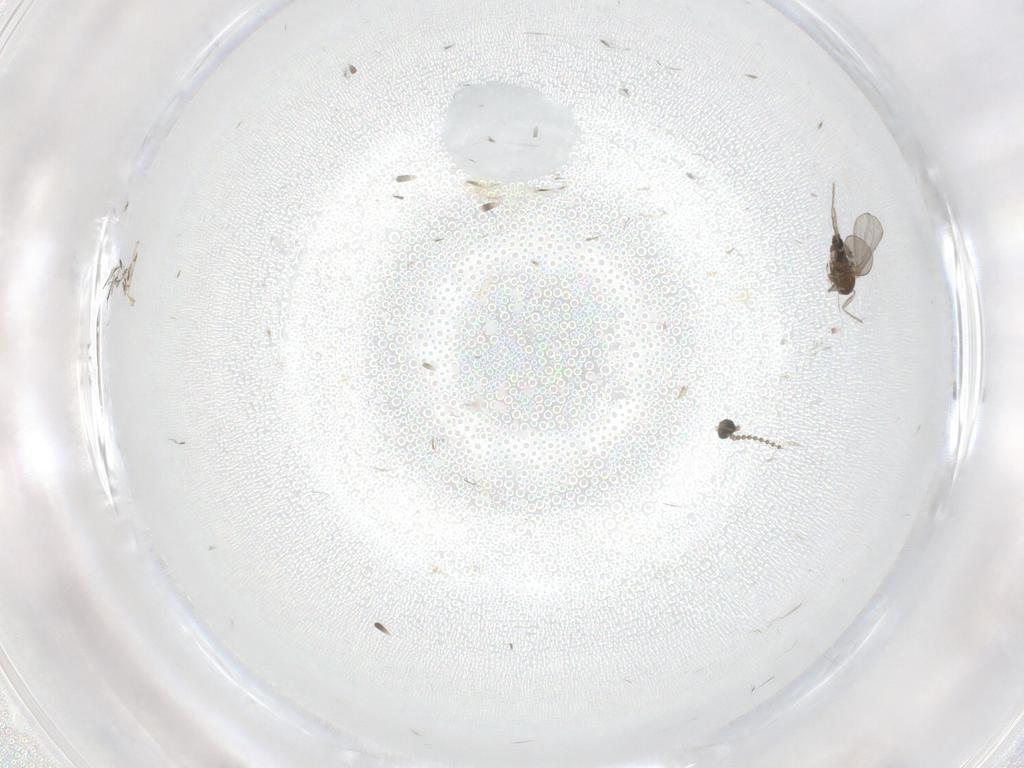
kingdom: Animalia
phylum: Arthropoda
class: Insecta
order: Diptera
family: Cecidomyiidae
